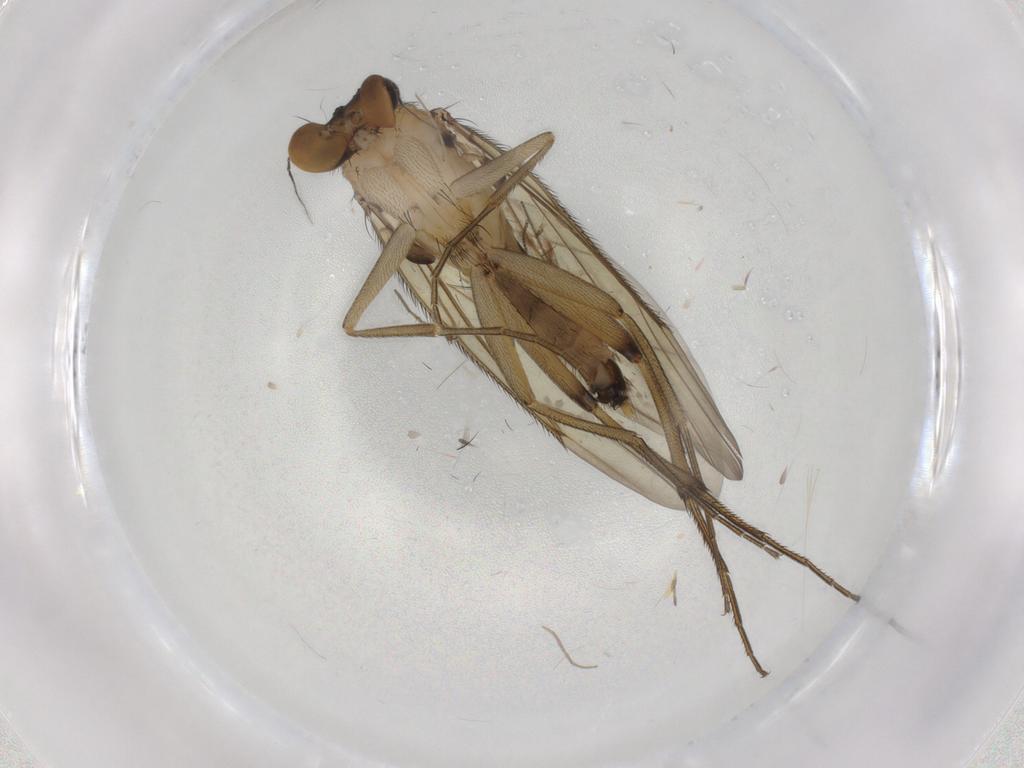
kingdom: Animalia
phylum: Arthropoda
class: Insecta
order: Diptera
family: Phoridae
